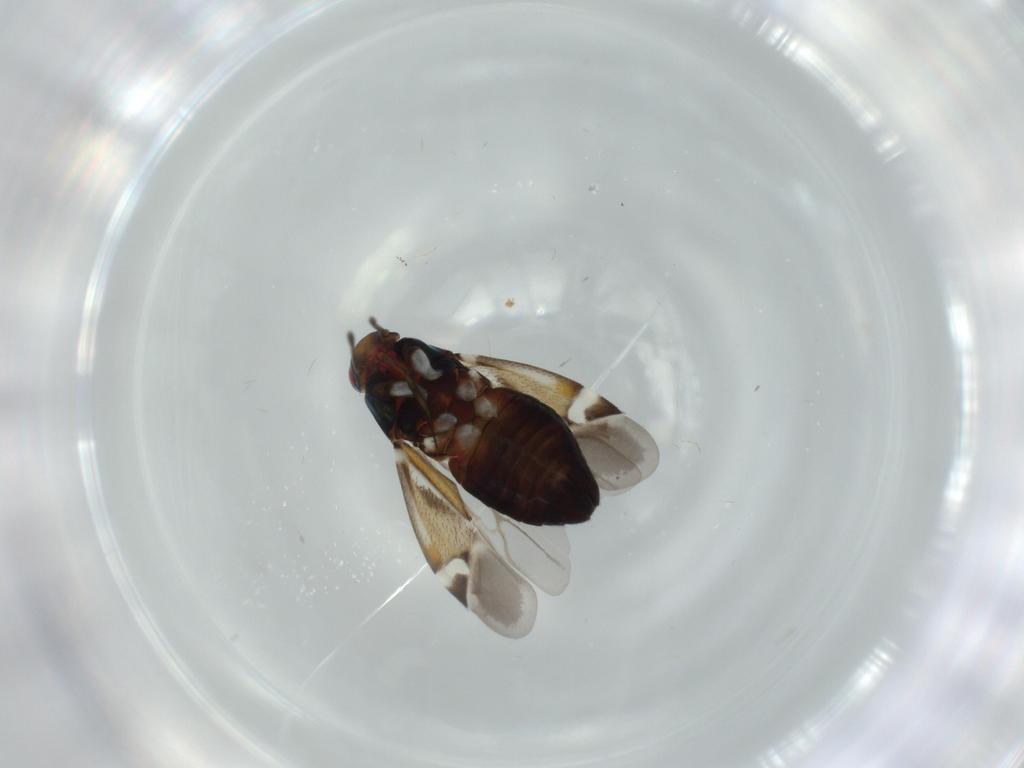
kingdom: Animalia
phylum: Arthropoda
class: Insecta
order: Hemiptera
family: Miridae
